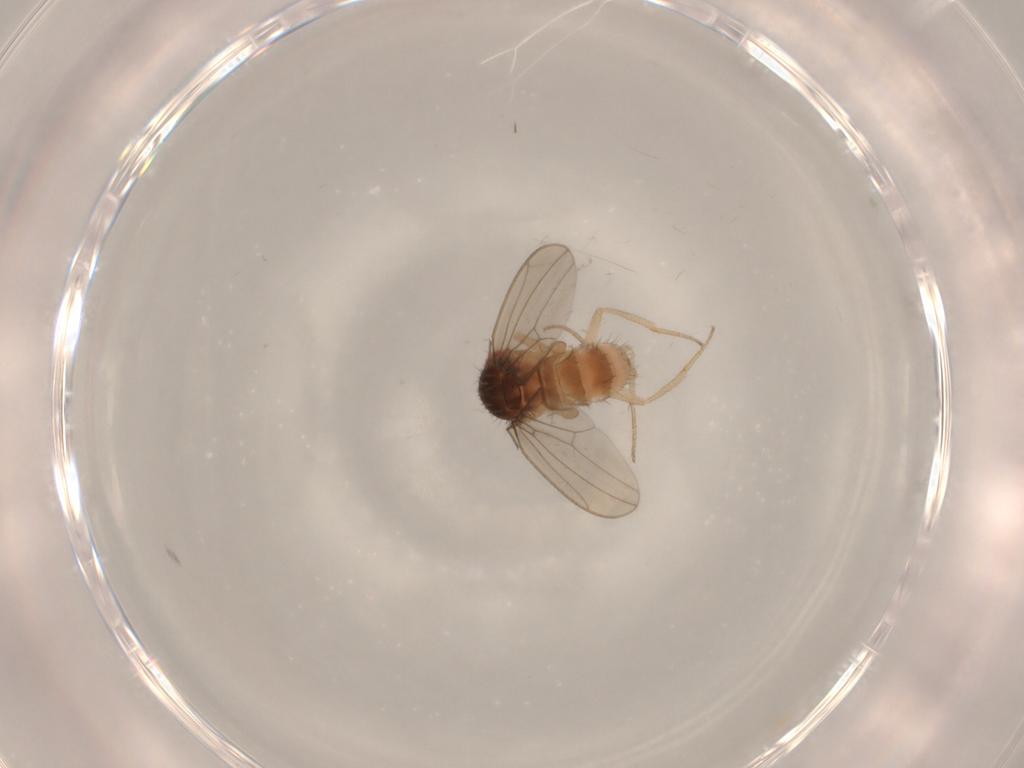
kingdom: Animalia
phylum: Arthropoda
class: Insecta
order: Diptera
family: Drosophilidae
